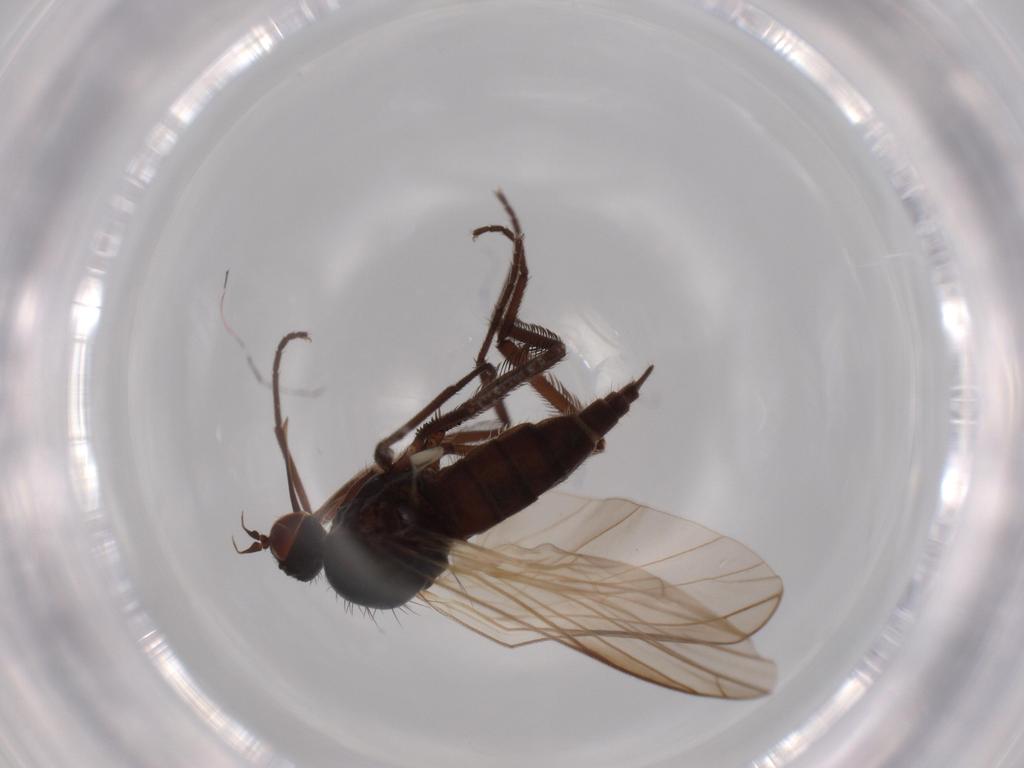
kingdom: Animalia
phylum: Arthropoda
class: Insecta
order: Diptera
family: Empididae
